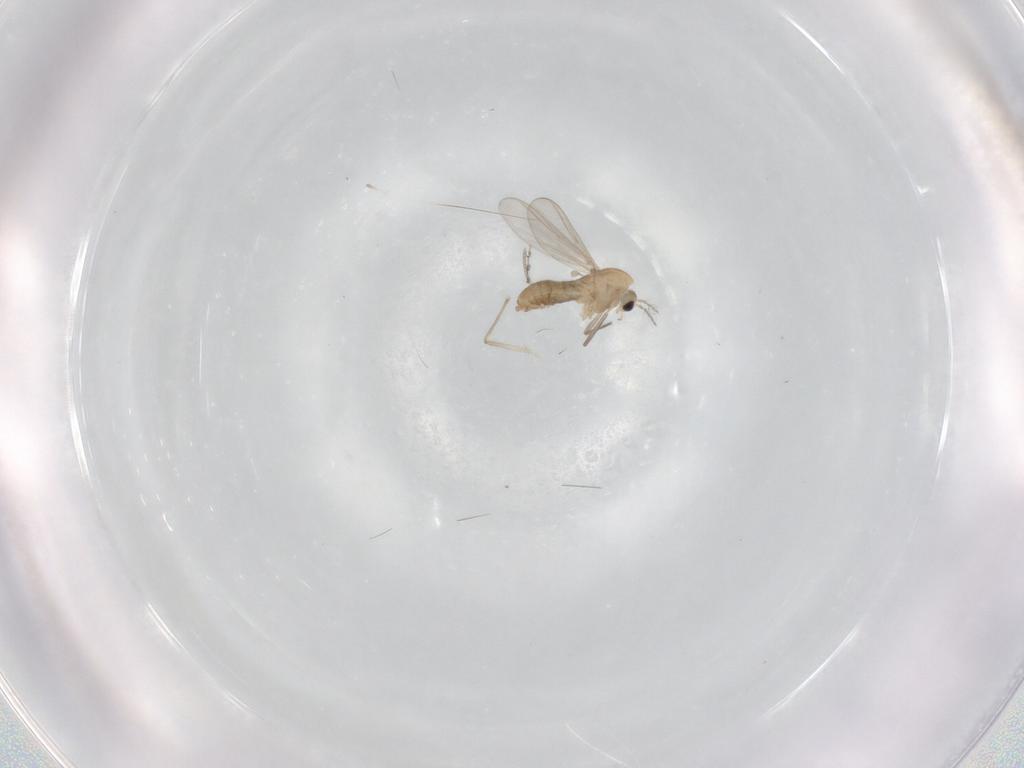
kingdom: Animalia
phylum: Arthropoda
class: Insecta
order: Diptera
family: Chironomidae
